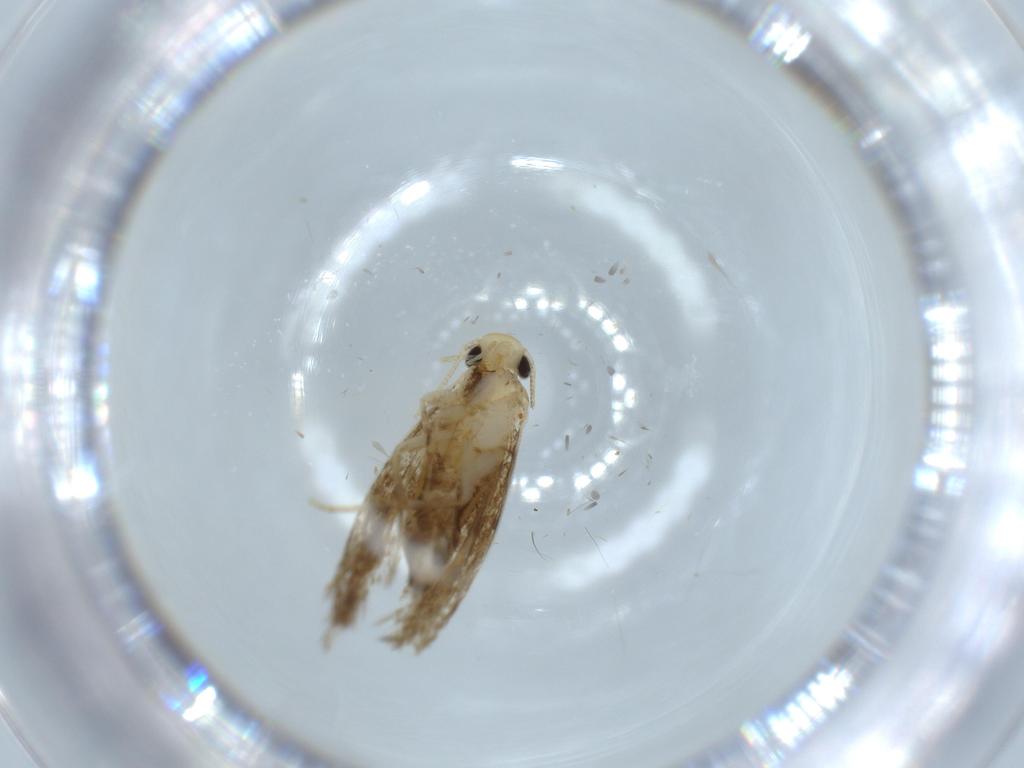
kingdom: Animalia
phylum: Arthropoda
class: Insecta
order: Lepidoptera
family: Tineidae
